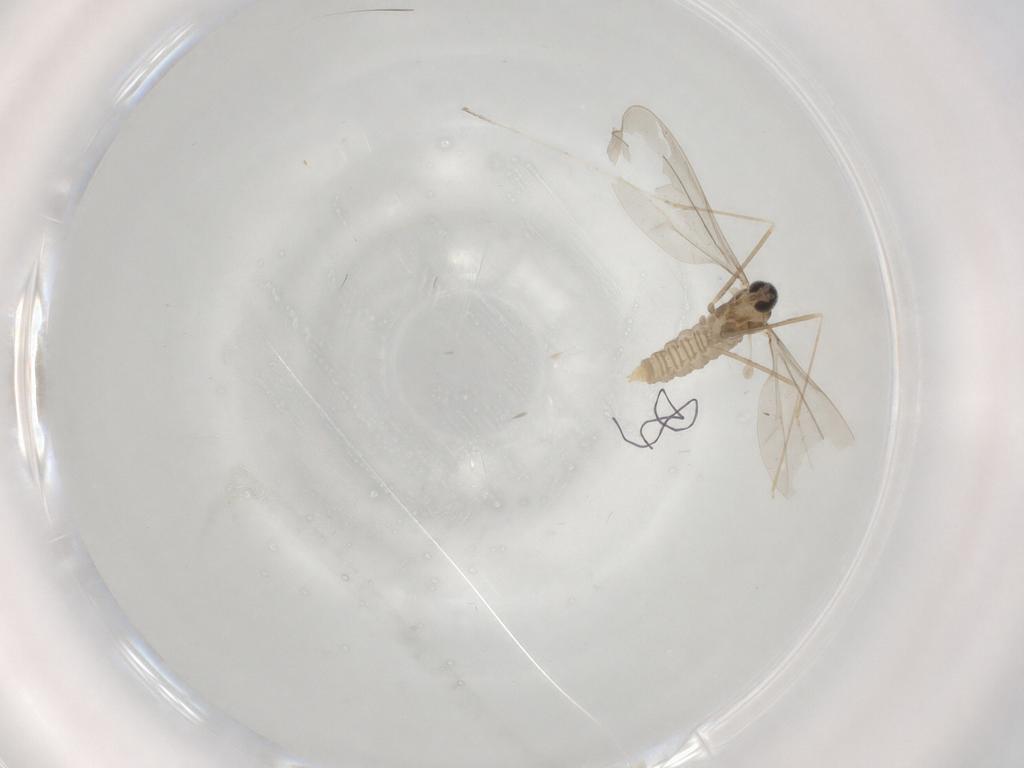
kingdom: Animalia
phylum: Arthropoda
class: Insecta
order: Diptera
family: Cecidomyiidae
